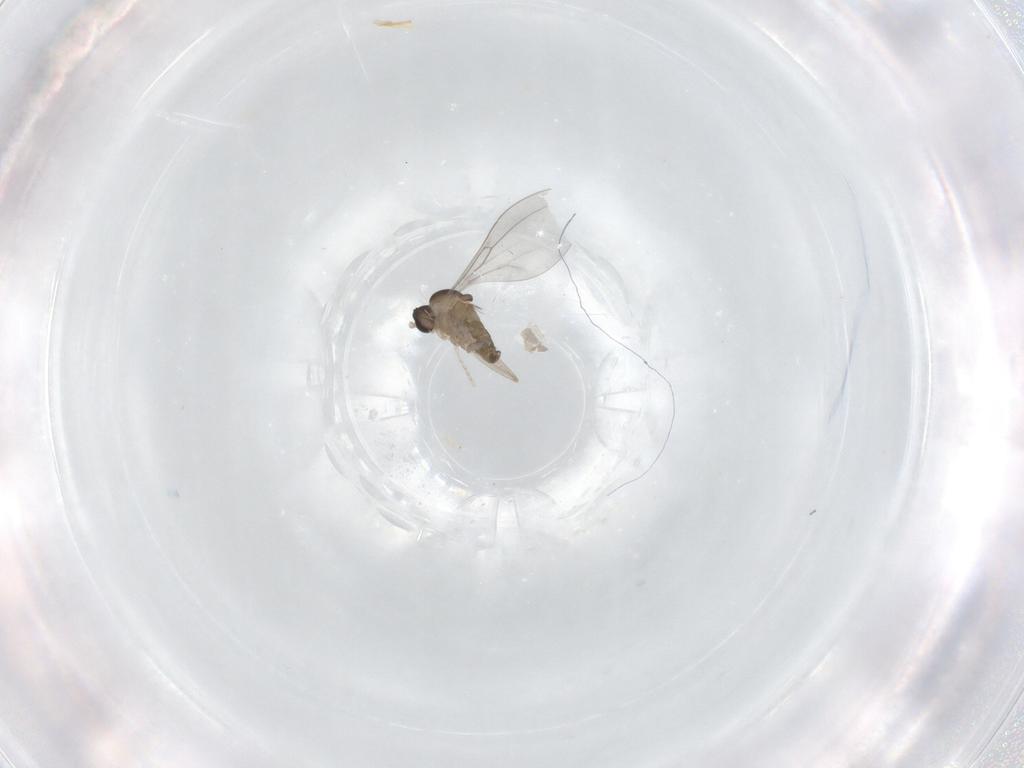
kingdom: Animalia
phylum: Arthropoda
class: Insecta
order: Diptera
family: Cecidomyiidae
